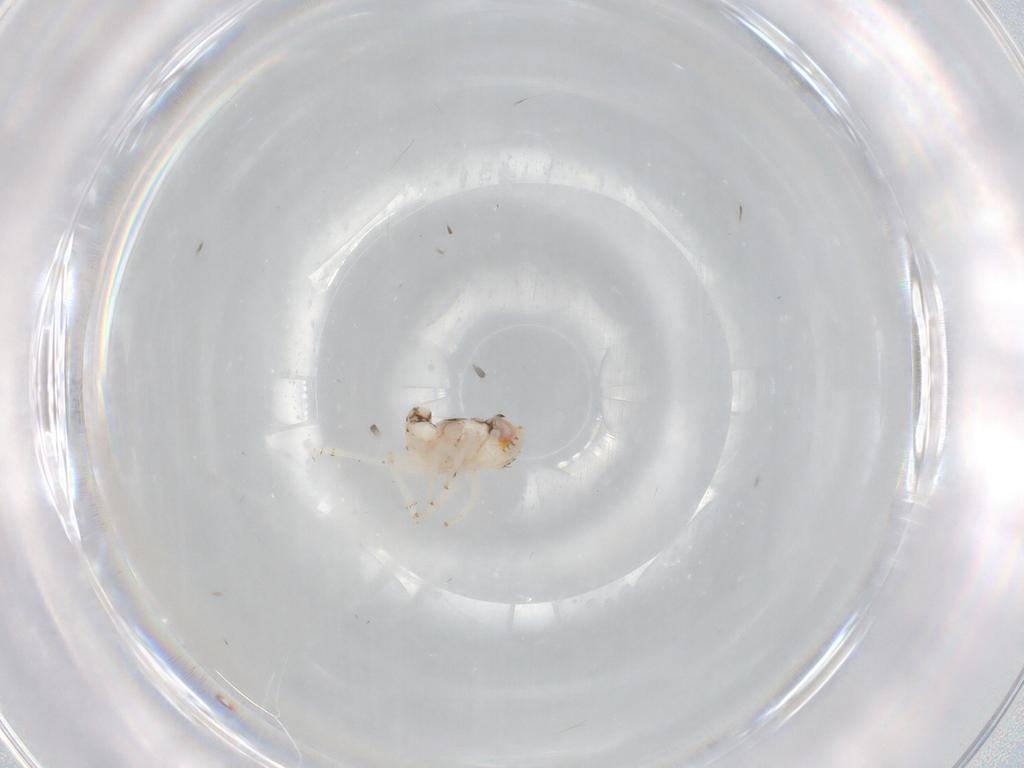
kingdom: Animalia
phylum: Arthropoda
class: Insecta
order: Hemiptera
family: Nogodinidae
